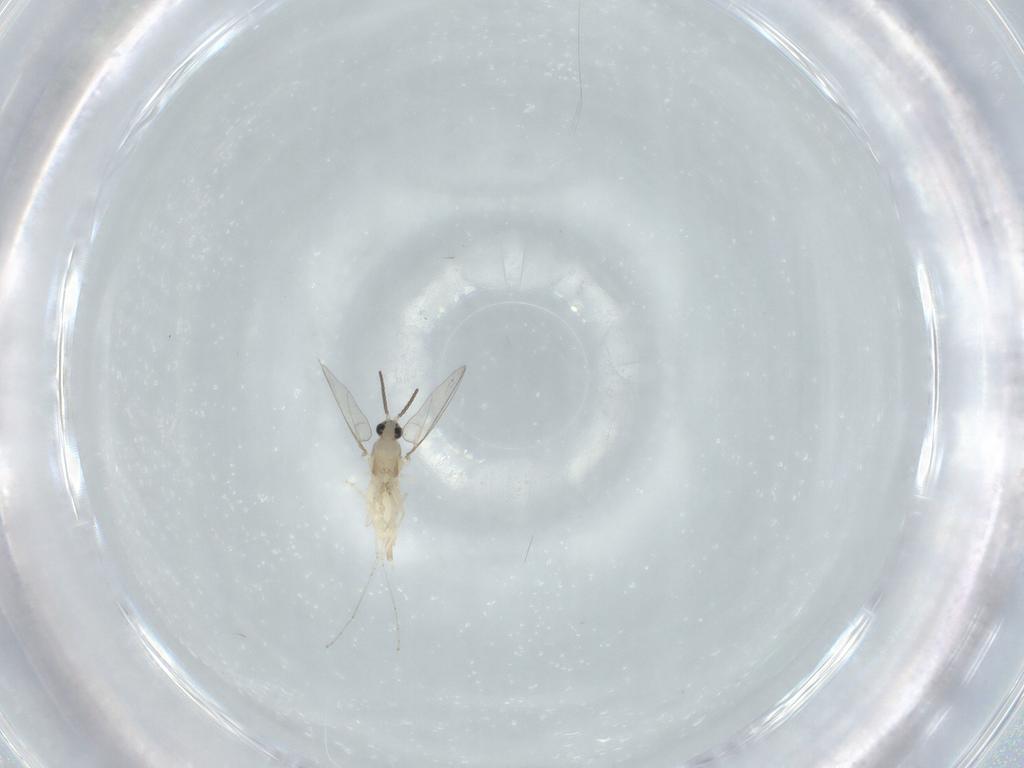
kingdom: Animalia
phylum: Arthropoda
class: Insecta
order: Diptera
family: Cecidomyiidae
